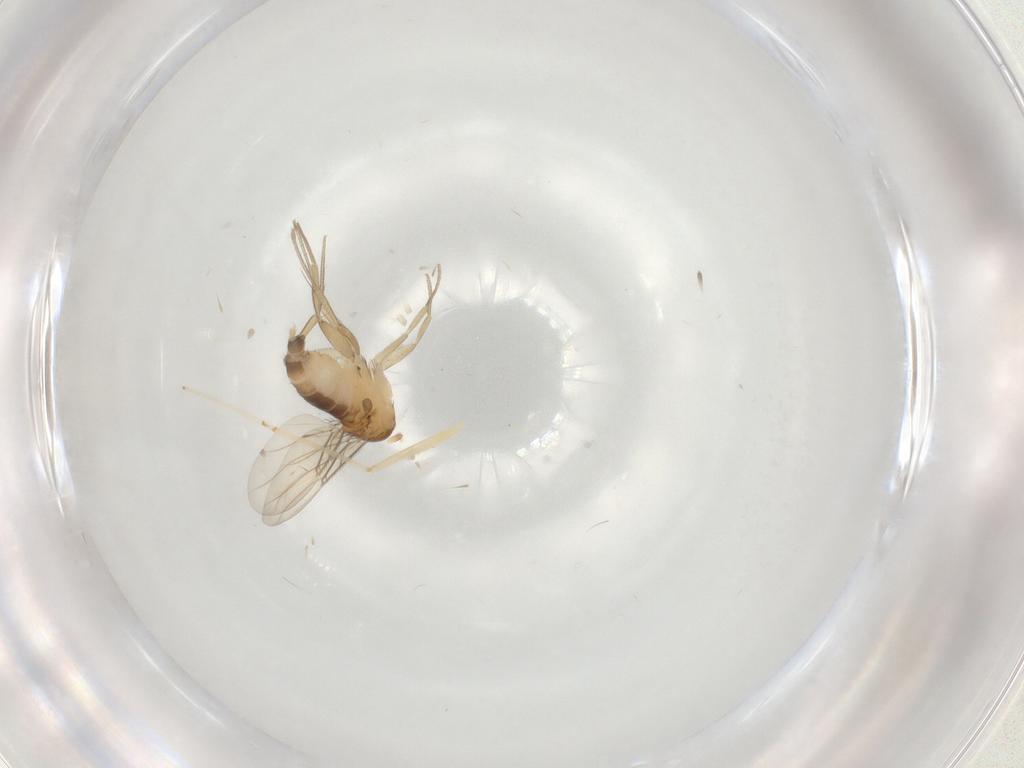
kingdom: Animalia
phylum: Arthropoda
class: Insecta
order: Diptera
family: Phoridae
